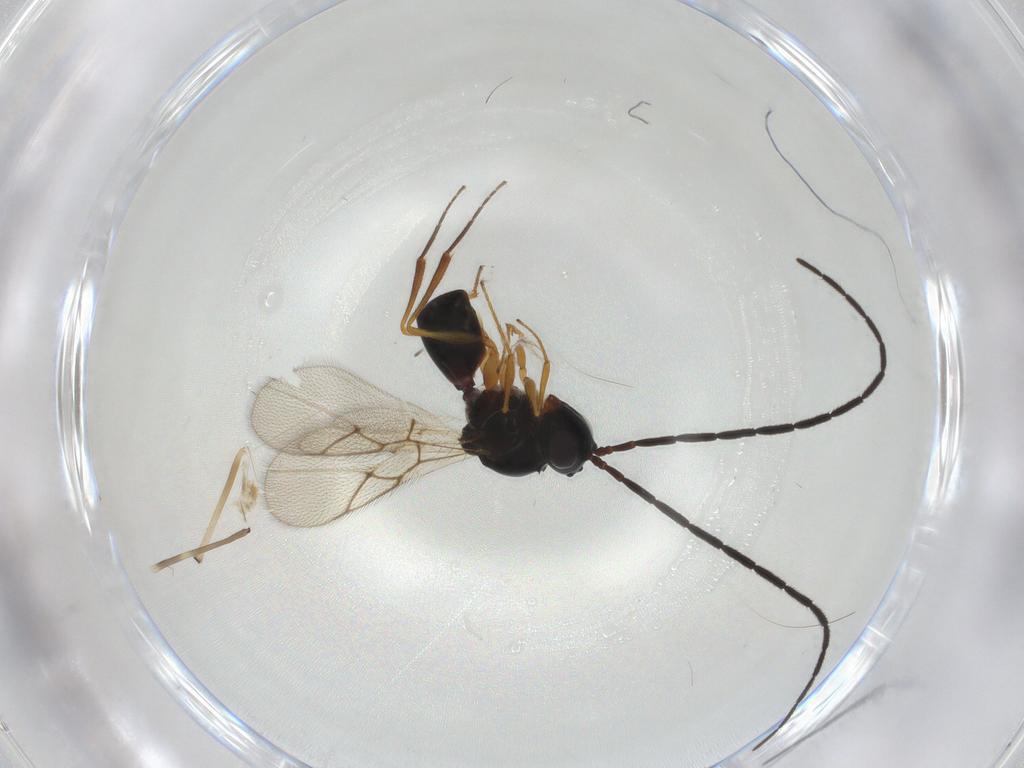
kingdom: Animalia
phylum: Arthropoda
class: Insecta
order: Hymenoptera
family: Figitidae
